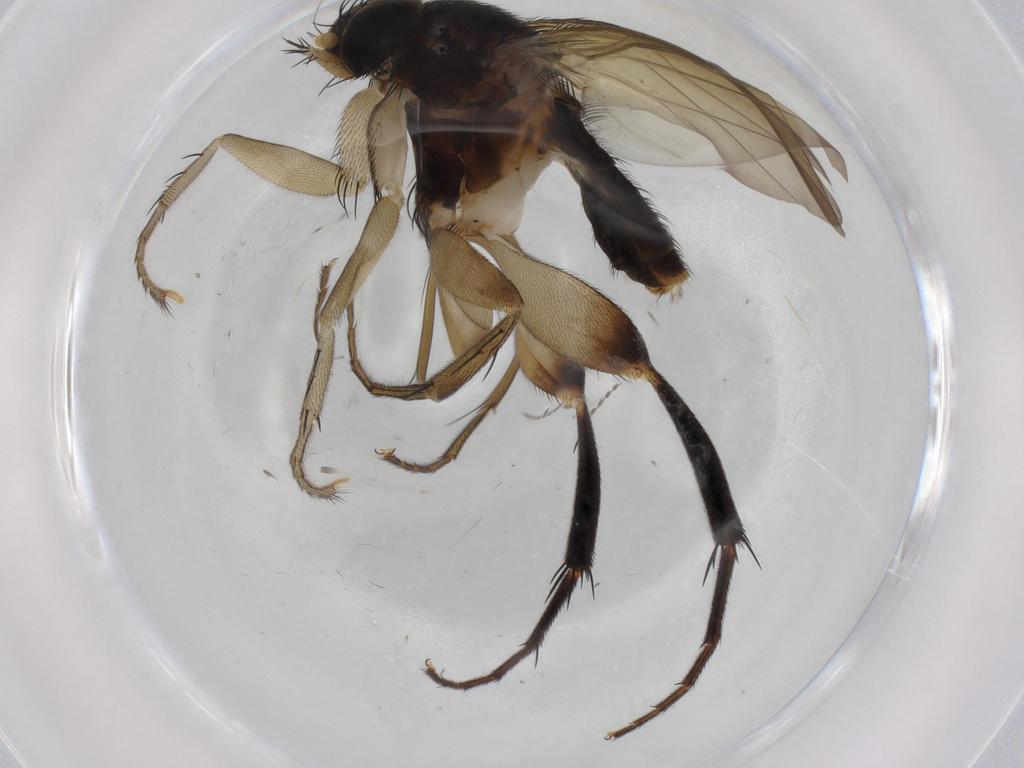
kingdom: Animalia
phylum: Arthropoda
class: Insecta
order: Diptera
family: Phoridae
